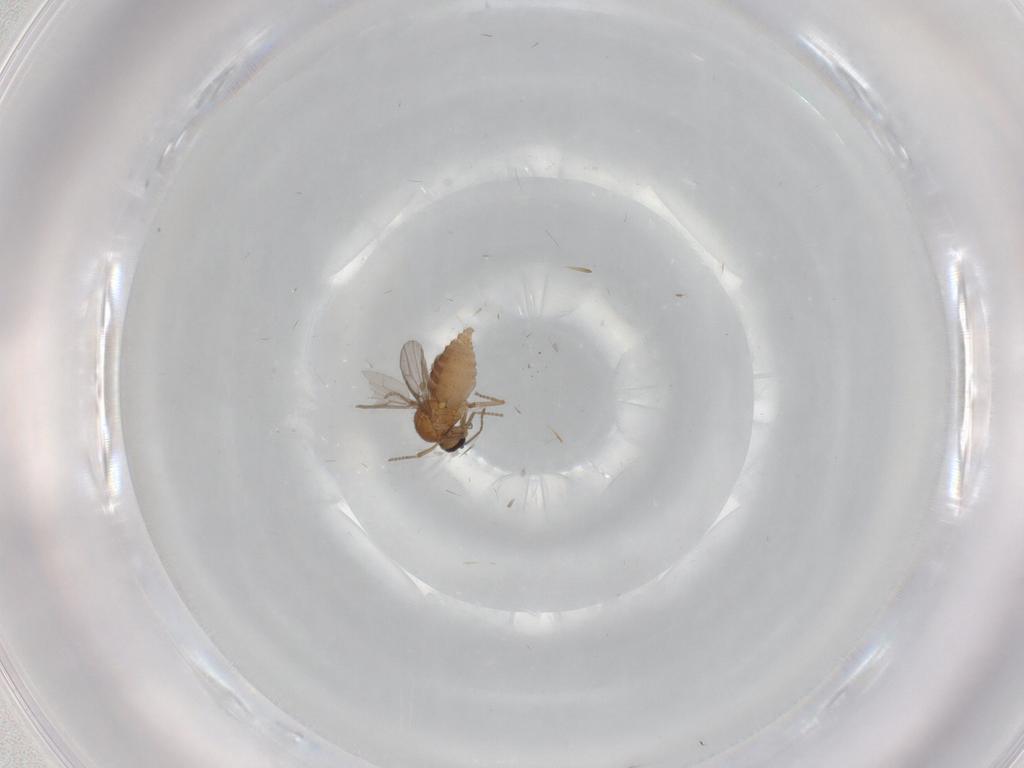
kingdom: Animalia
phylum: Arthropoda
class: Insecta
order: Diptera
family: Ceratopogonidae
